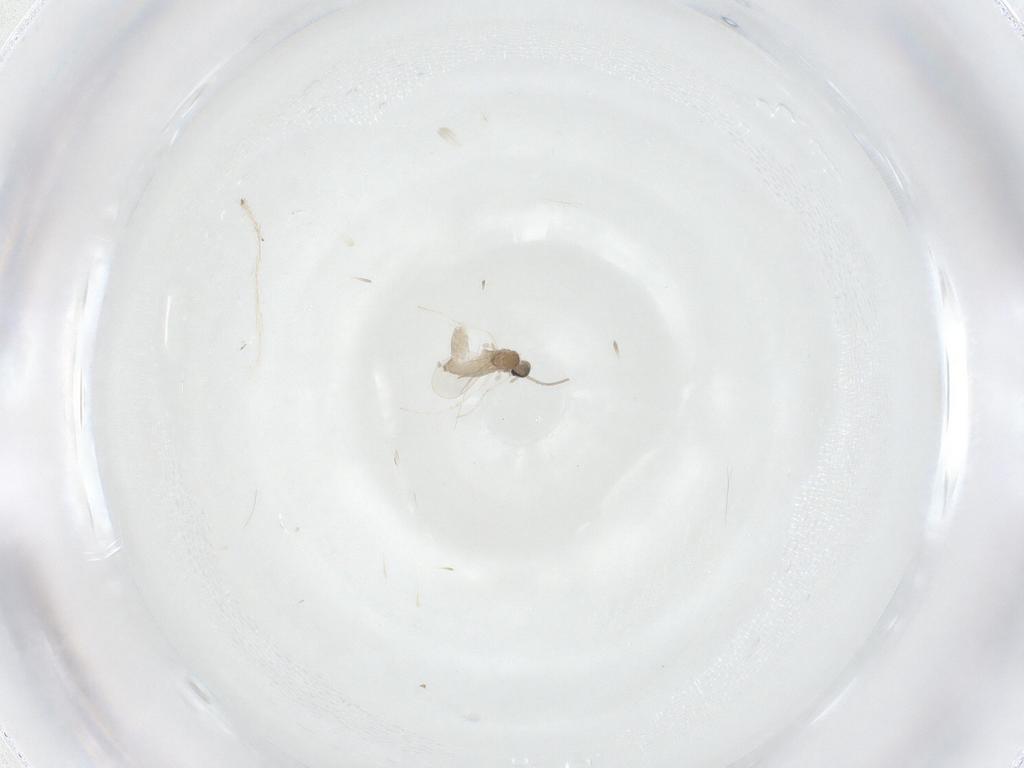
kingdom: Animalia
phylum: Arthropoda
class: Insecta
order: Diptera
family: Cecidomyiidae
